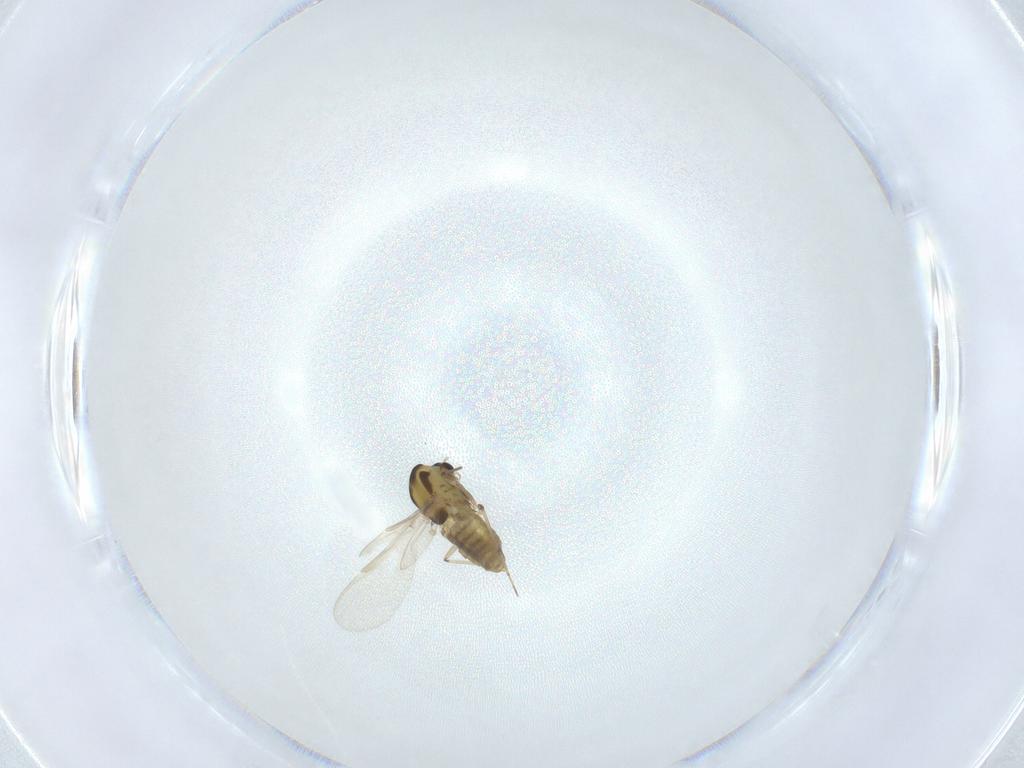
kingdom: Animalia
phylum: Arthropoda
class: Insecta
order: Diptera
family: Chironomidae
